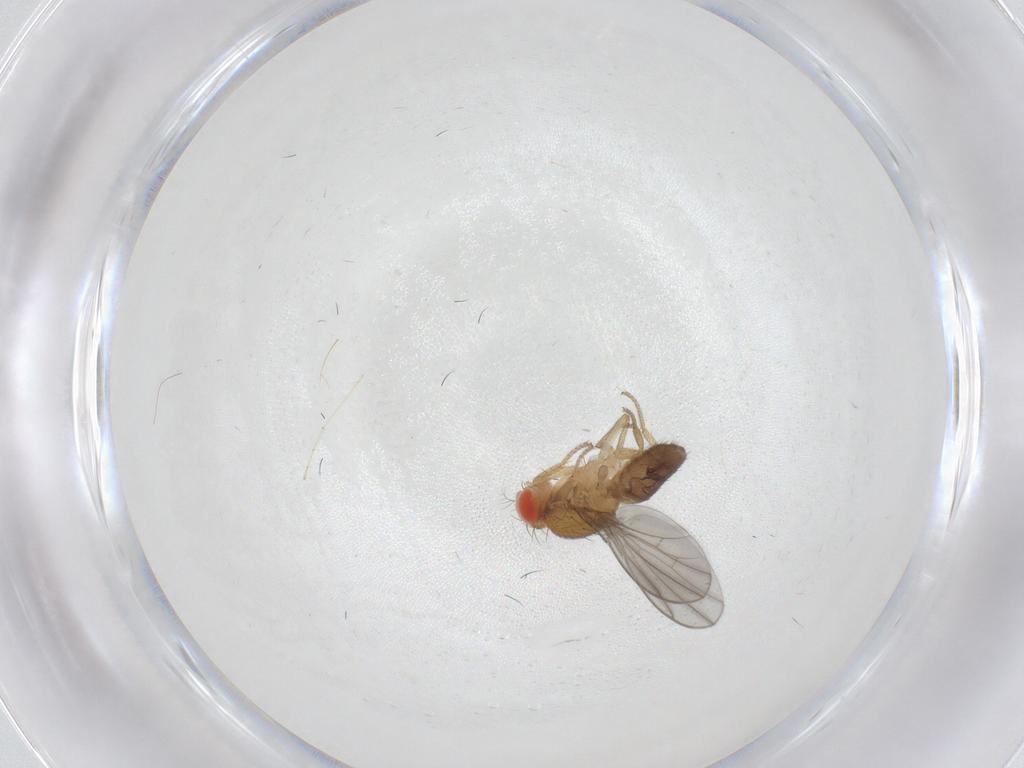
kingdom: Animalia
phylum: Arthropoda
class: Insecta
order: Diptera
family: Drosophilidae
